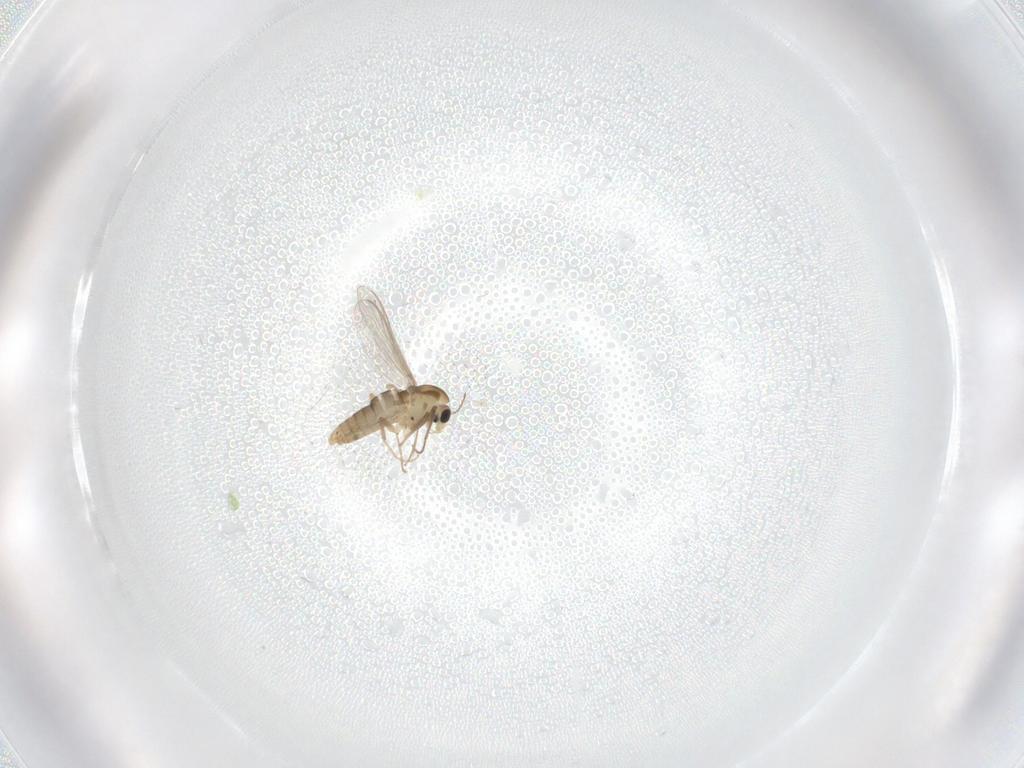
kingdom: Animalia
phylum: Arthropoda
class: Insecta
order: Diptera
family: Chironomidae
